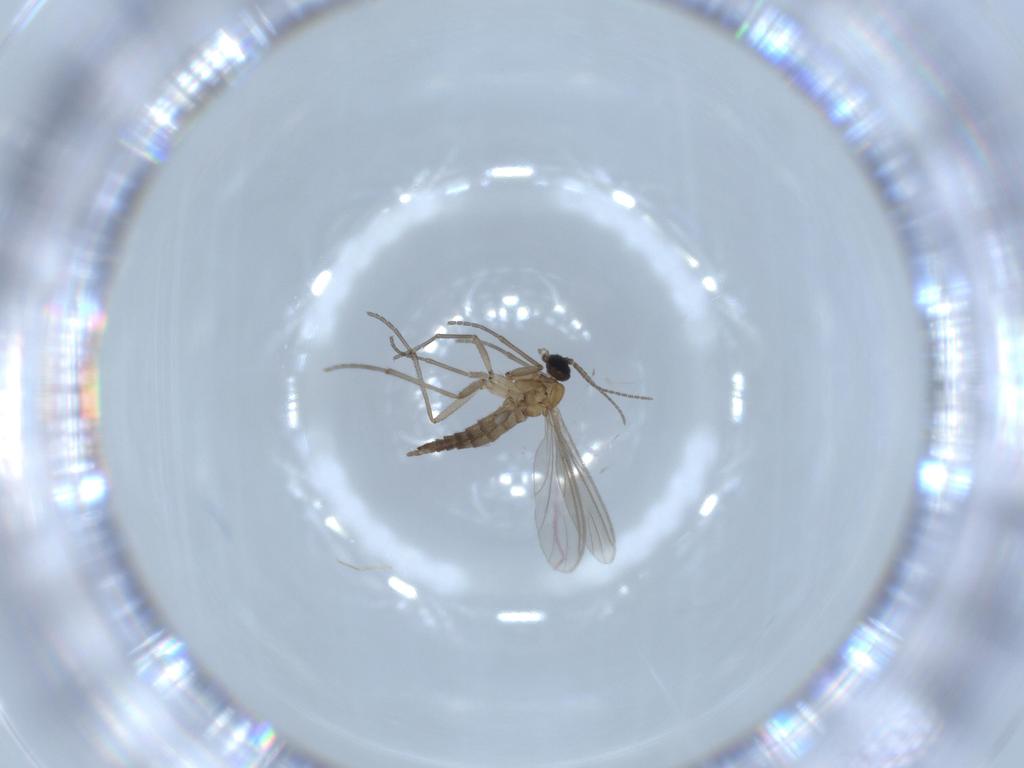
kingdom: Animalia
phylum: Arthropoda
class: Insecta
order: Diptera
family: Sciaridae
